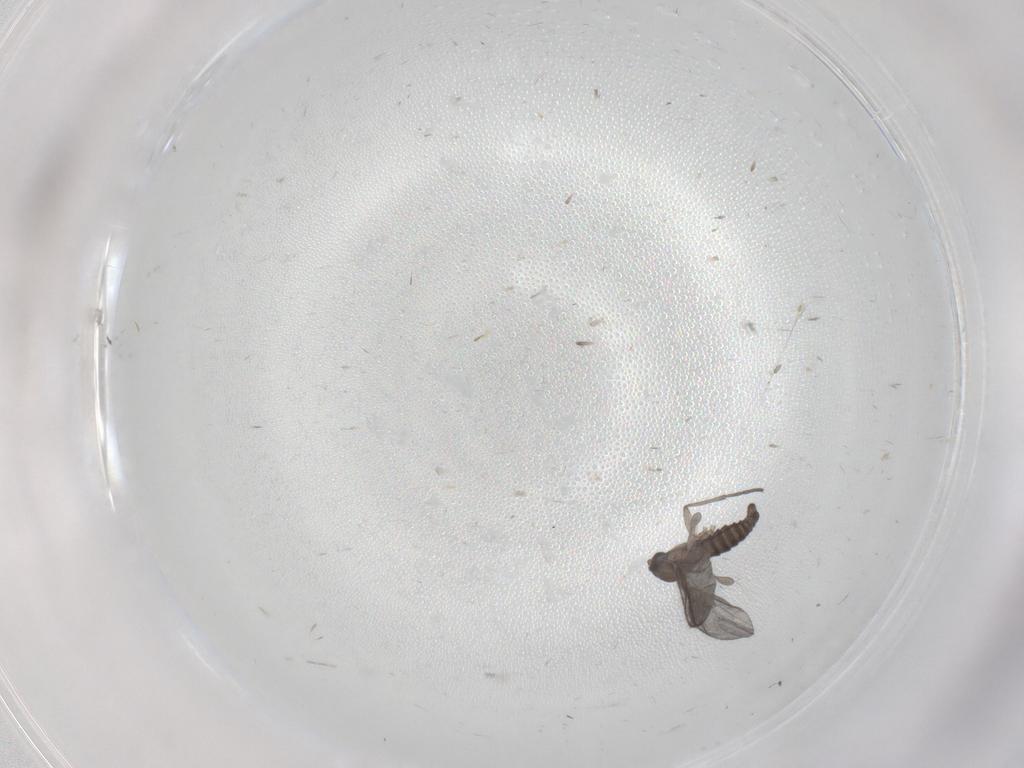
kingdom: Animalia
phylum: Arthropoda
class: Insecta
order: Diptera
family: Sciaridae
